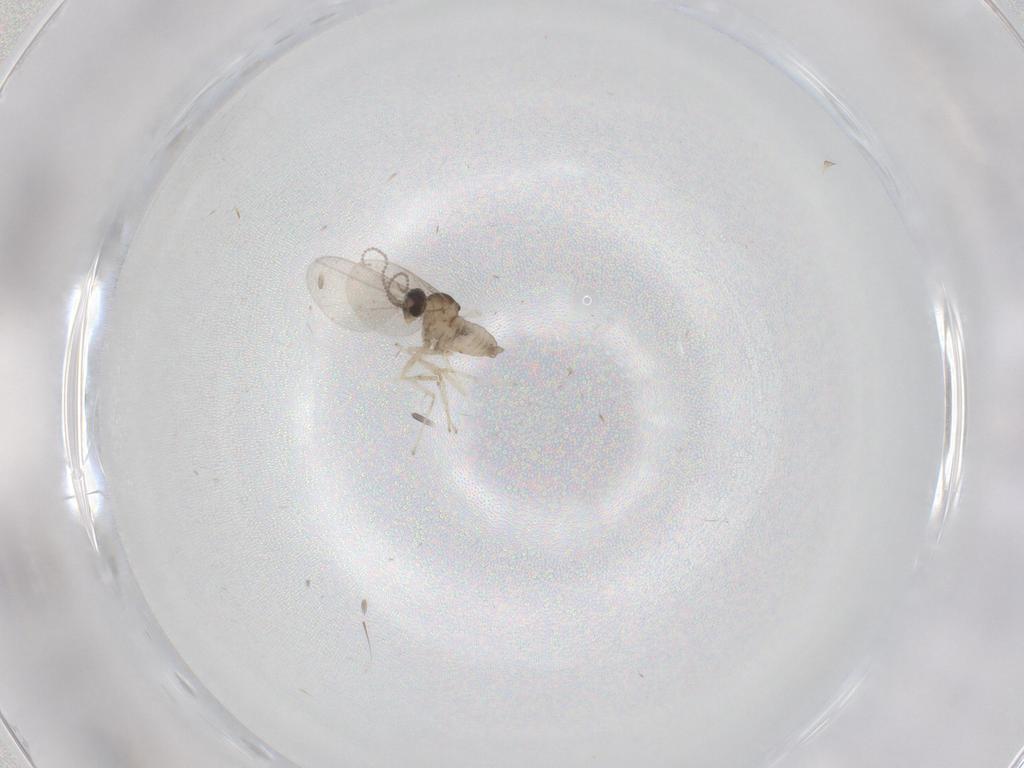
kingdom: Animalia
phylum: Arthropoda
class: Insecta
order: Diptera
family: Cecidomyiidae
